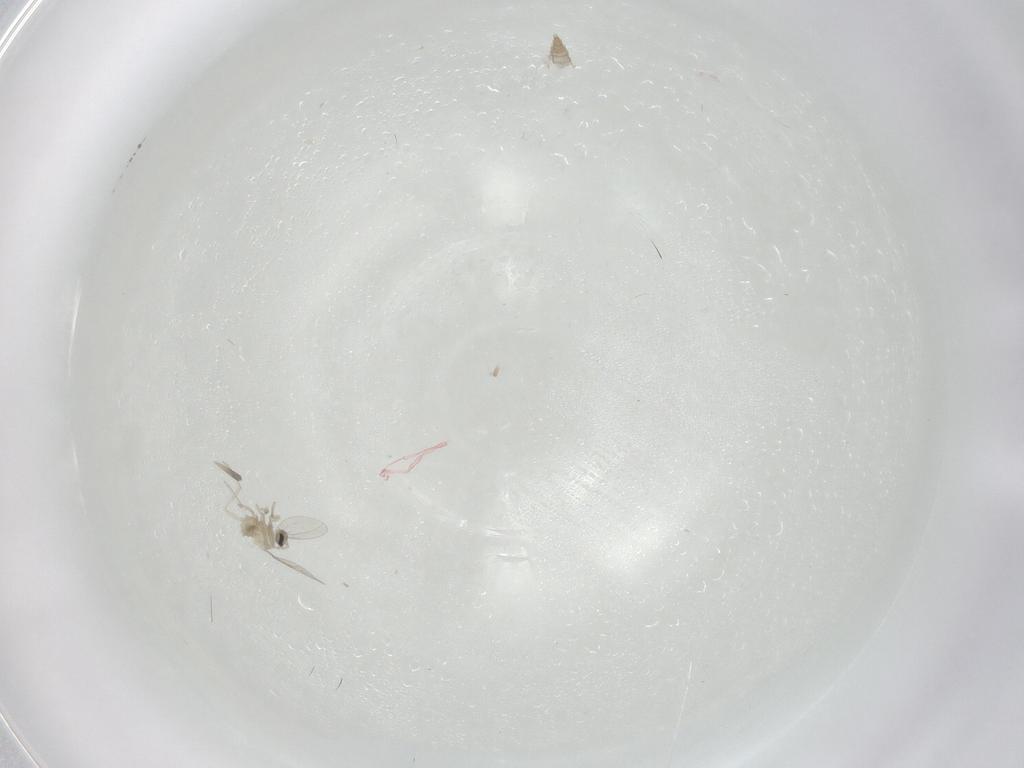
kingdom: Animalia
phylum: Arthropoda
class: Insecta
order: Diptera
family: Cecidomyiidae
